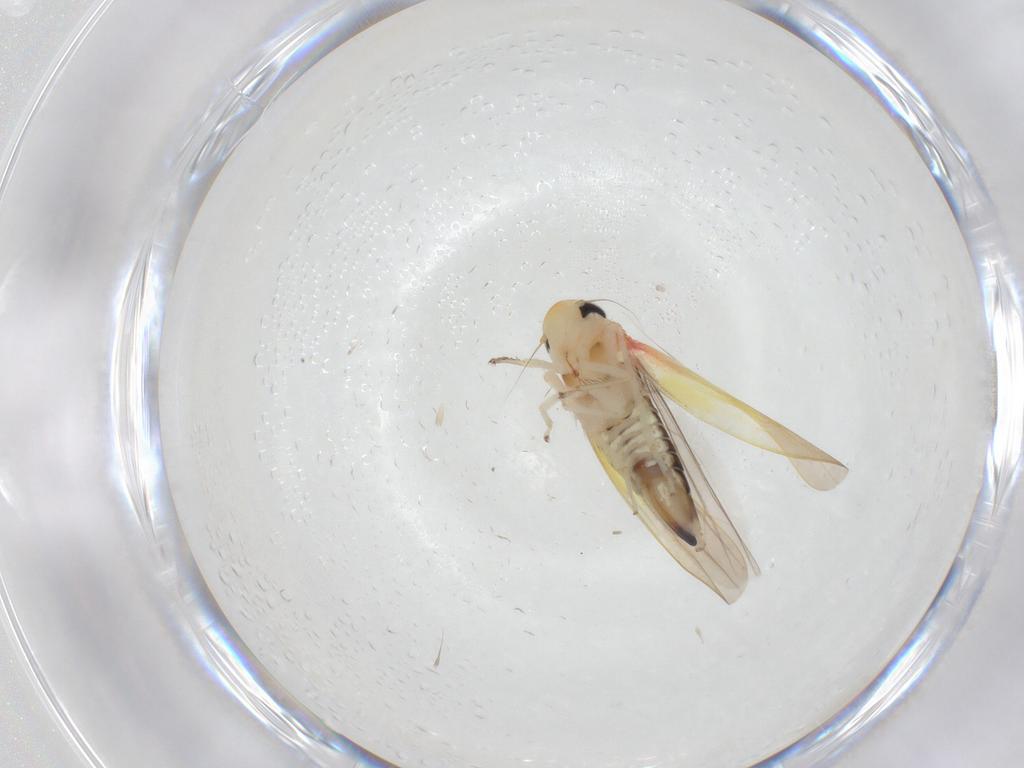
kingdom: Animalia
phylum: Arthropoda
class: Insecta
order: Hemiptera
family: Cicadellidae
